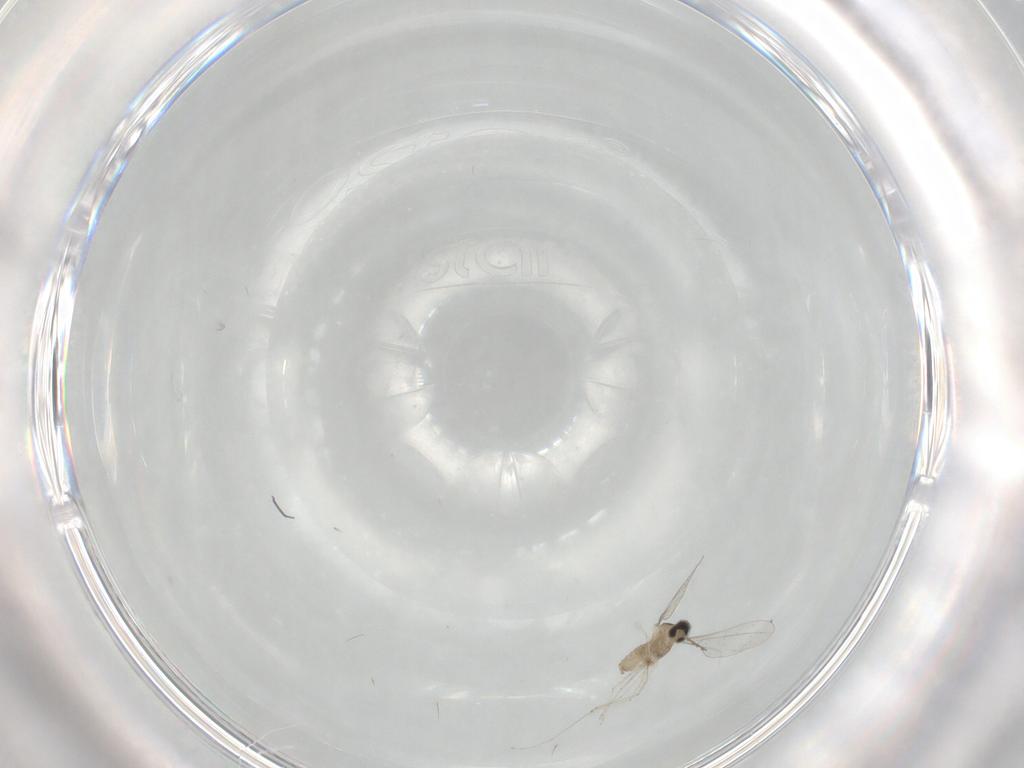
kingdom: Animalia
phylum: Arthropoda
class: Insecta
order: Diptera
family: Cecidomyiidae
